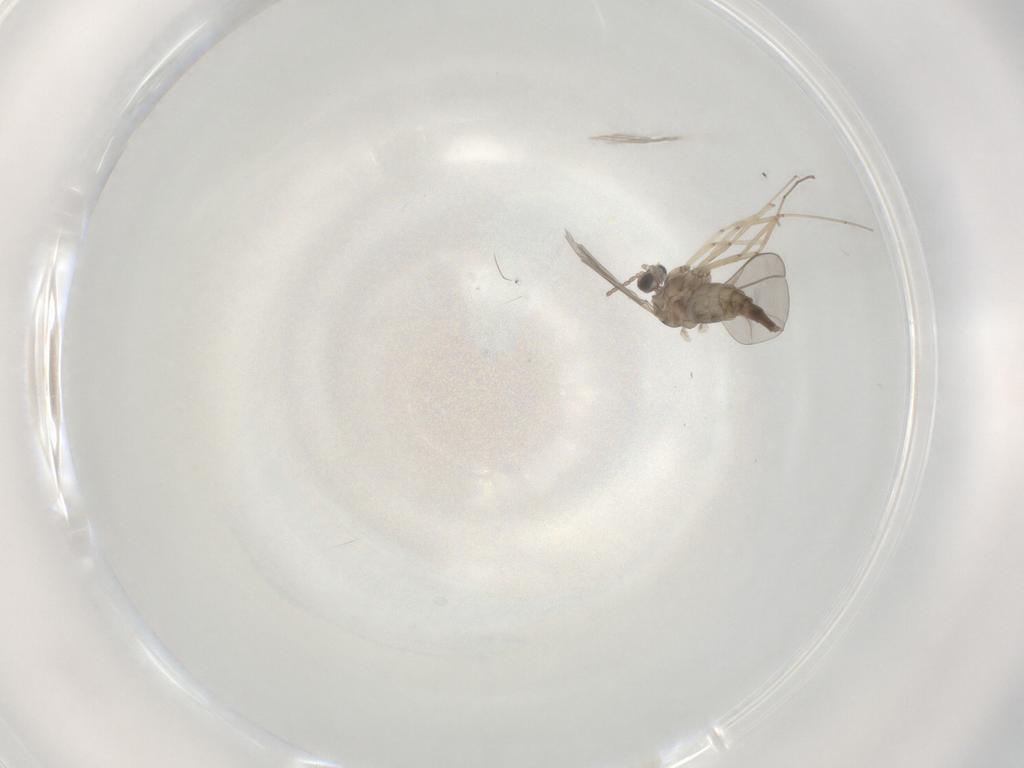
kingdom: Animalia
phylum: Arthropoda
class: Insecta
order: Diptera
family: Cecidomyiidae
